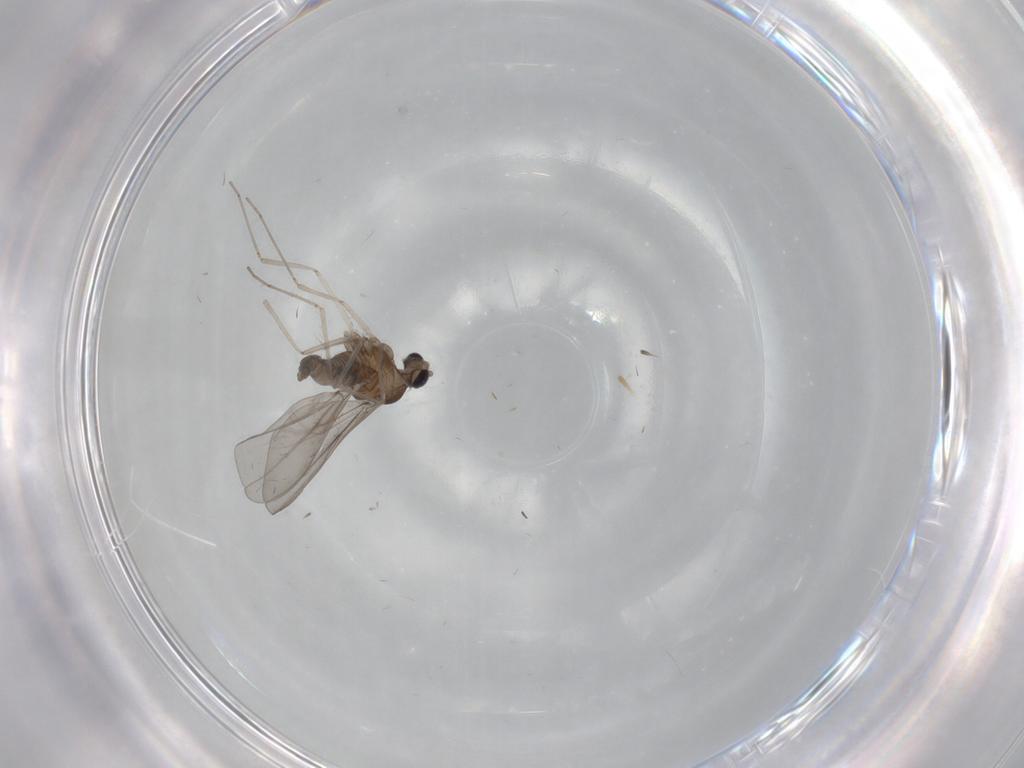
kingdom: Animalia
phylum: Arthropoda
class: Insecta
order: Diptera
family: Cecidomyiidae
